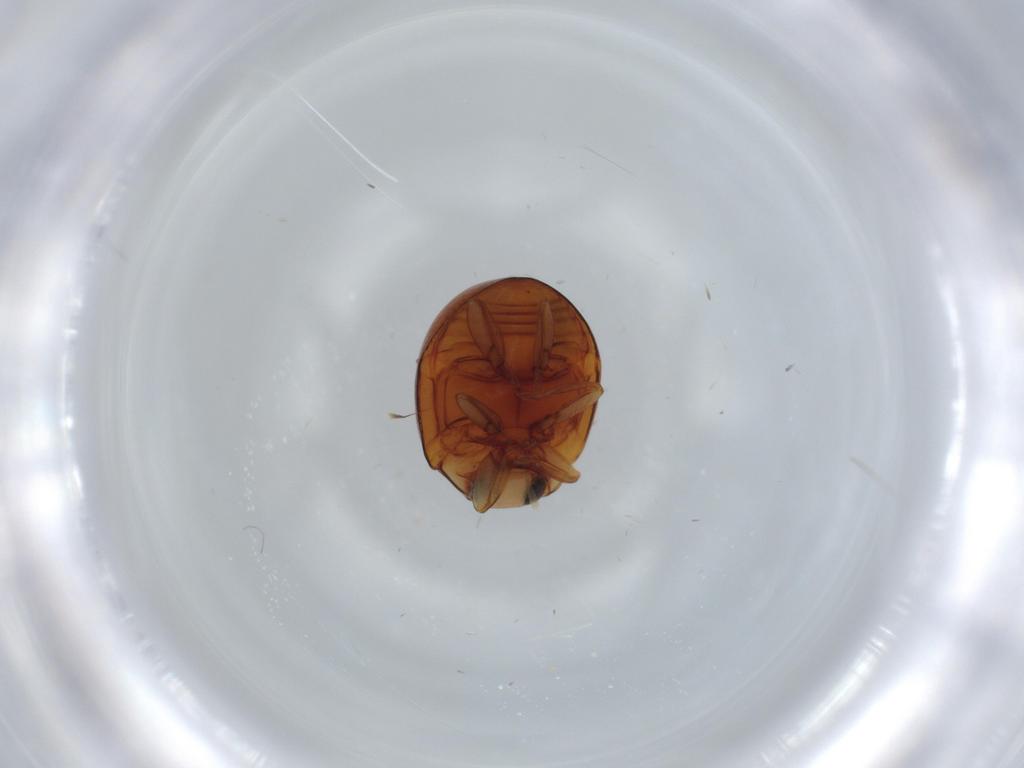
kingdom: Animalia
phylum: Arthropoda
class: Insecta
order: Coleoptera
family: Coccinellidae
